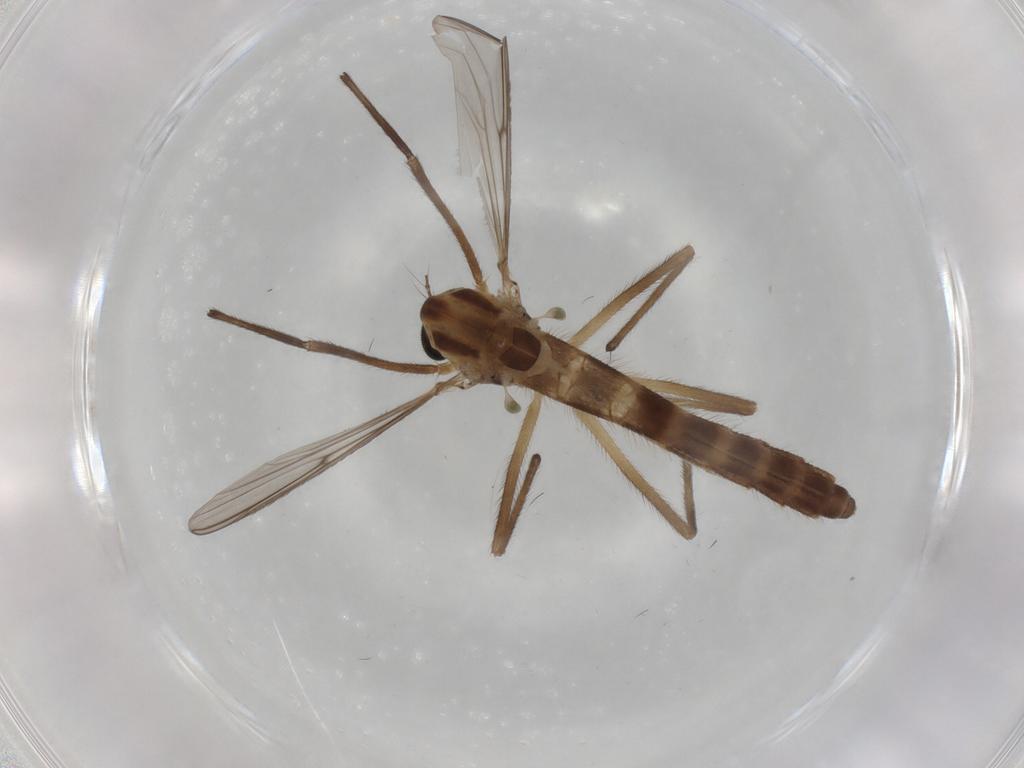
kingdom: Animalia
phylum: Arthropoda
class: Insecta
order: Diptera
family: Chironomidae
